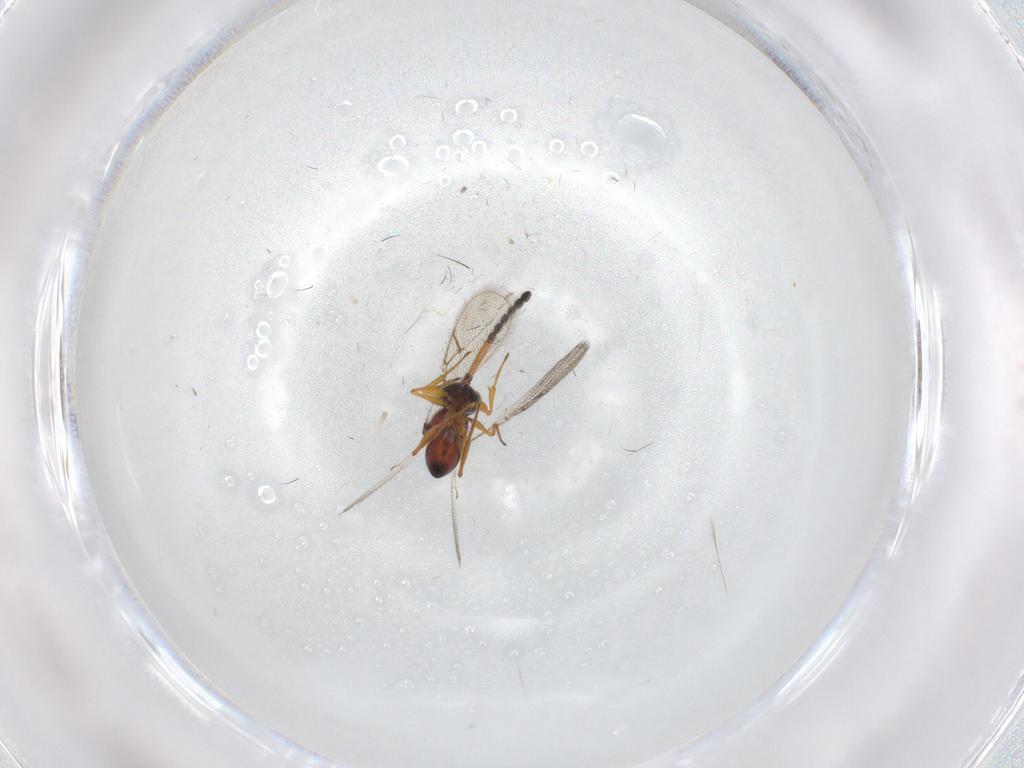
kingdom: Animalia
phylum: Arthropoda
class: Insecta
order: Hymenoptera
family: Figitidae
